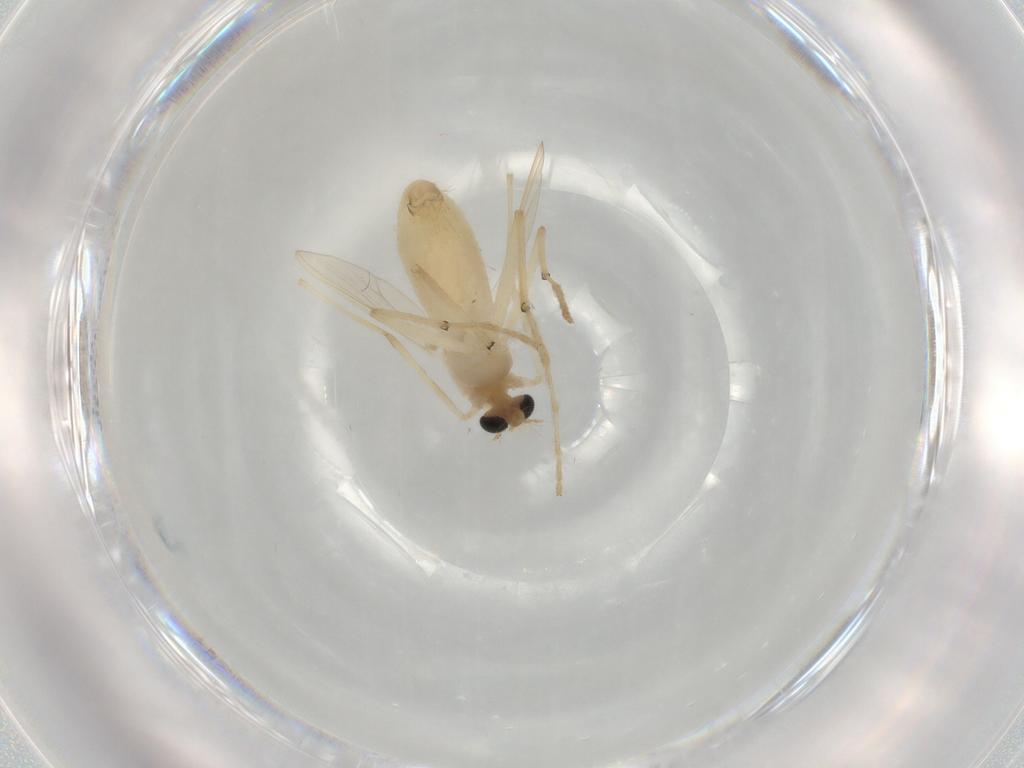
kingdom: Animalia
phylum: Arthropoda
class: Insecta
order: Diptera
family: Chironomidae
